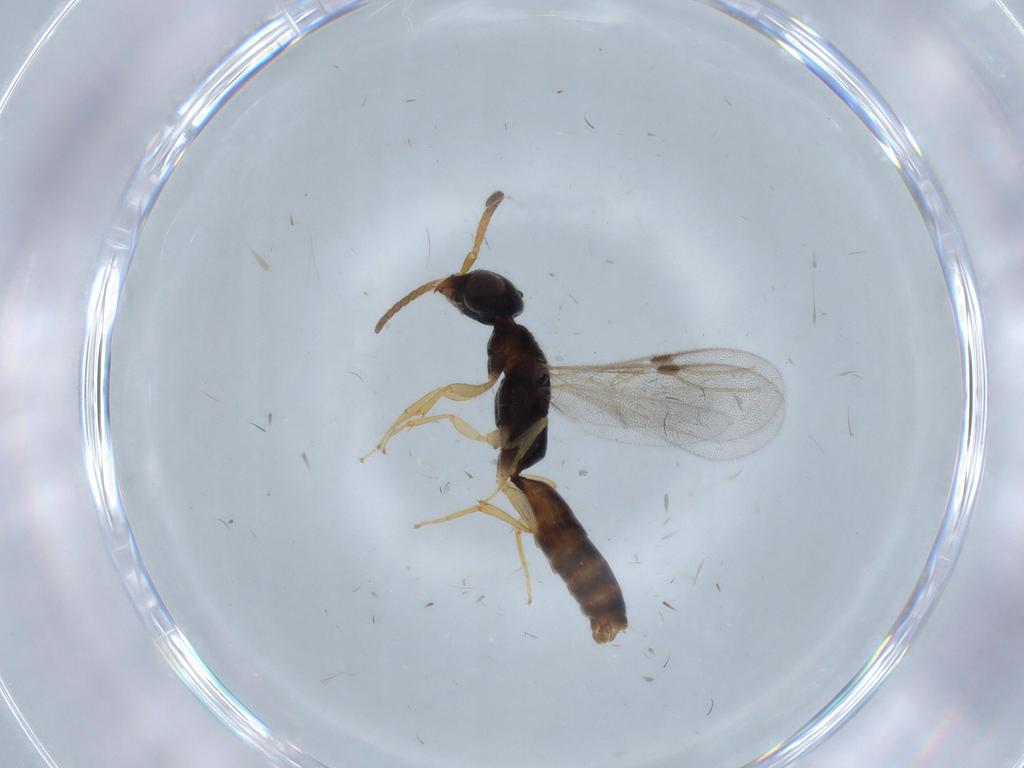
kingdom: Animalia
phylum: Arthropoda
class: Insecta
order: Hymenoptera
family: Bethylidae
